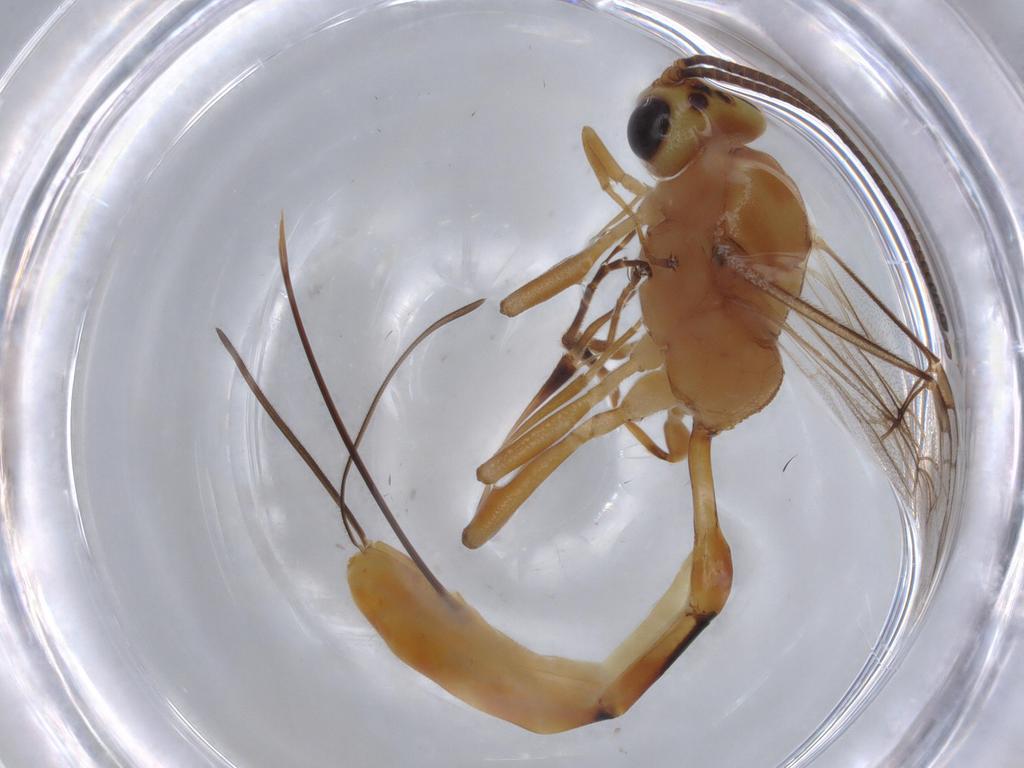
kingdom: Animalia
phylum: Arthropoda
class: Insecta
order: Hymenoptera
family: Ichneumonidae
